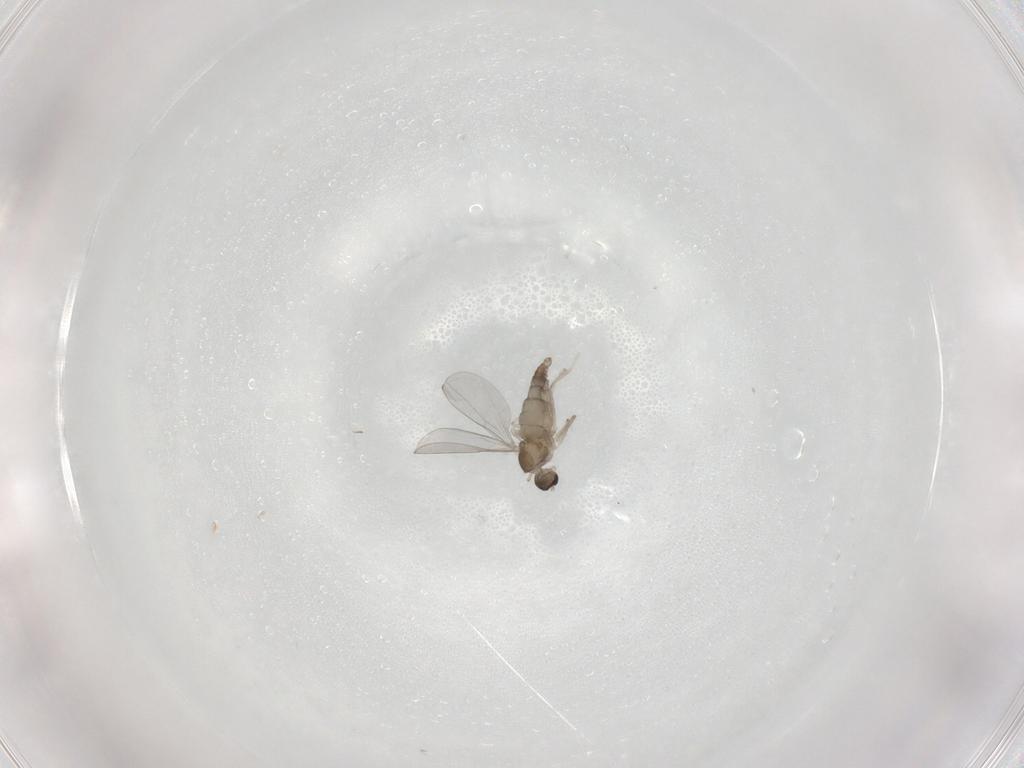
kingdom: Animalia
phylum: Arthropoda
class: Insecta
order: Diptera
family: Cecidomyiidae
